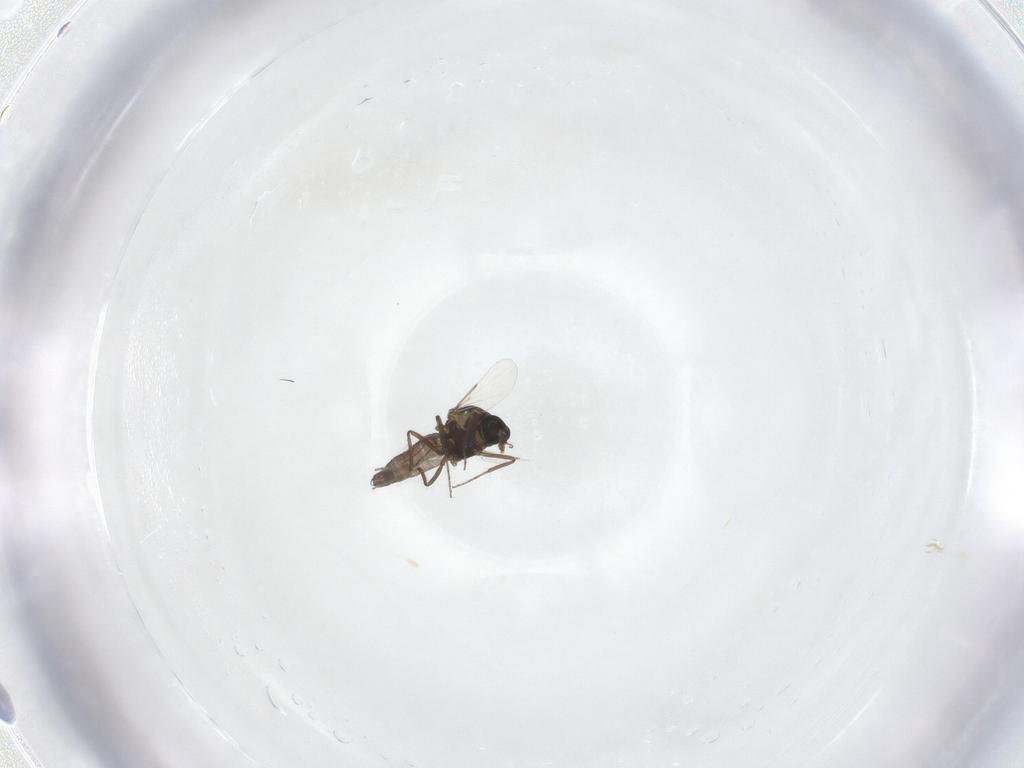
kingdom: Animalia
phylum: Arthropoda
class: Insecta
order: Diptera
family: Ceratopogonidae
